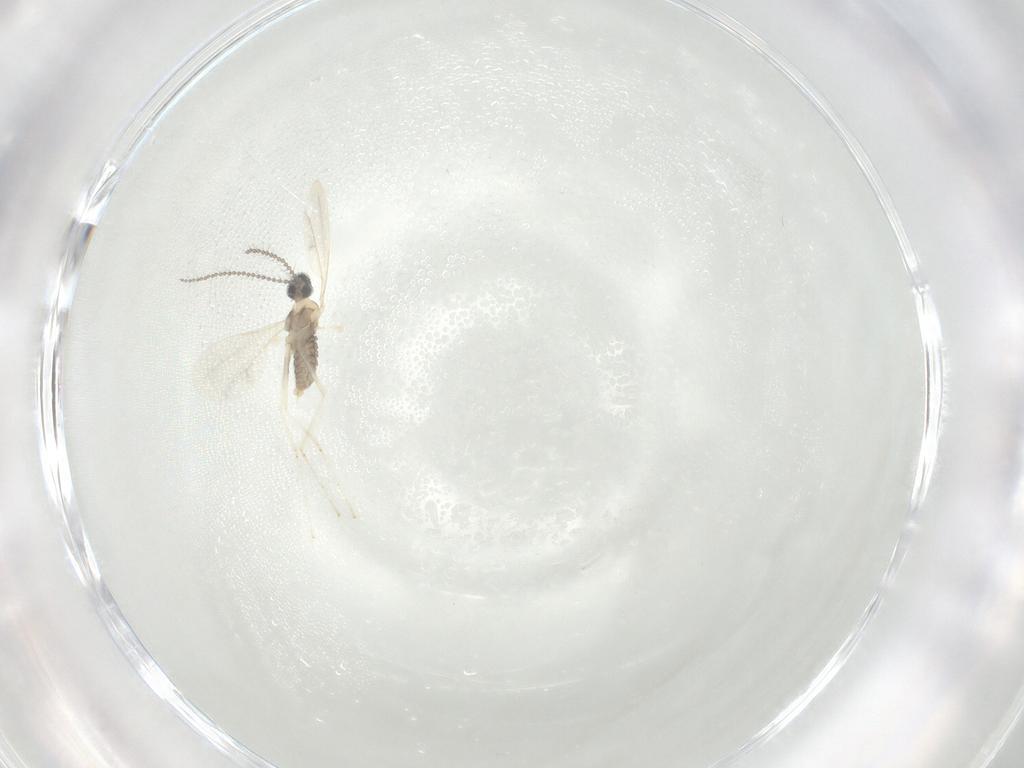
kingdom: Animalia
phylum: Arthropoda
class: Insecta
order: Diptera
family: Cecidomyiidae
